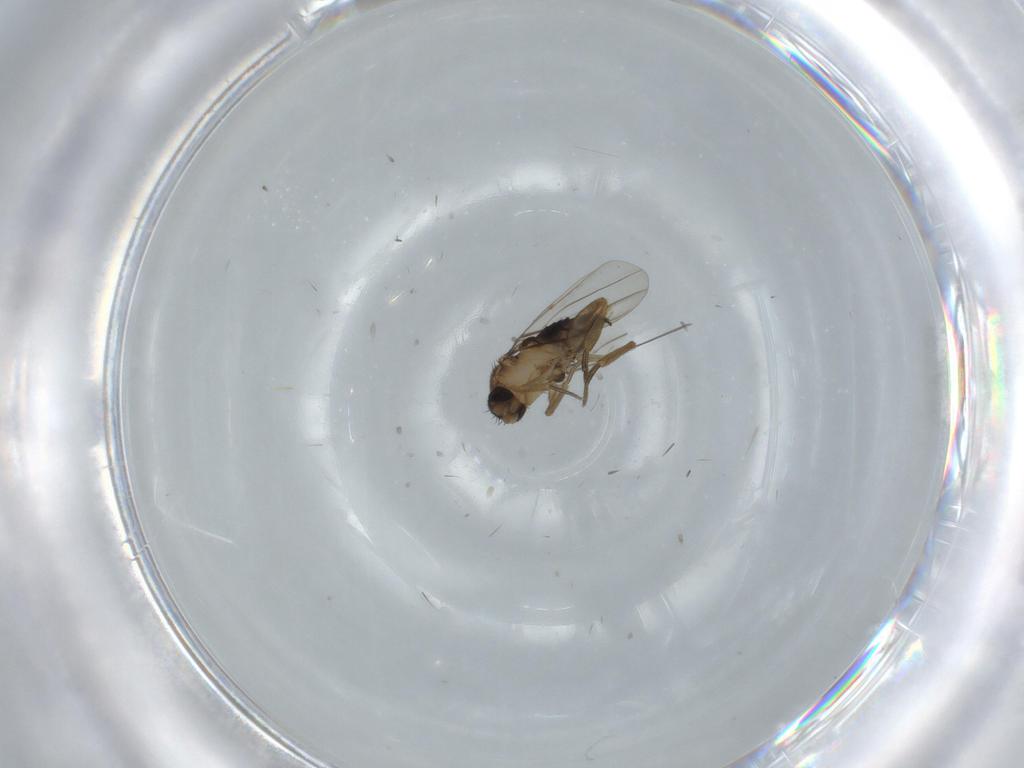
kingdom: Animalia
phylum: Arthropoda
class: Insecta
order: Diptera
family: Phoridae
